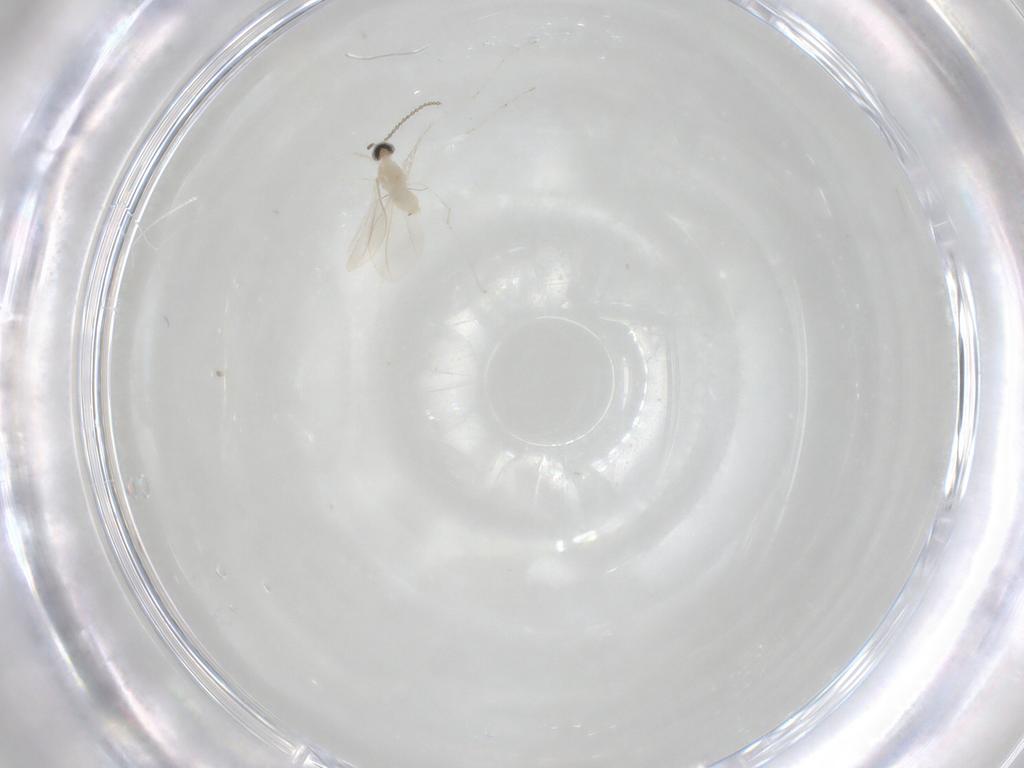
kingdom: Animalia
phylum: Arthropoda
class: Insecta
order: Diptera
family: Cecidomyiidae
